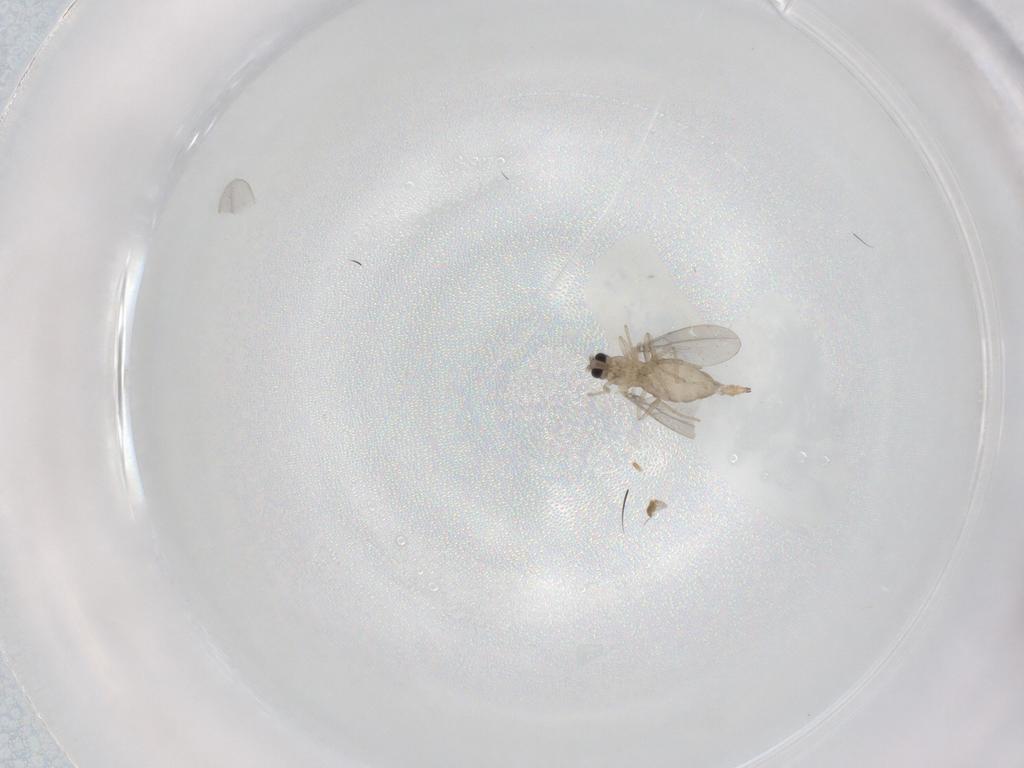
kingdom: Animalia
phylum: Arthropoda
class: Insecta
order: Diptera
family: Cecidomyiidae
